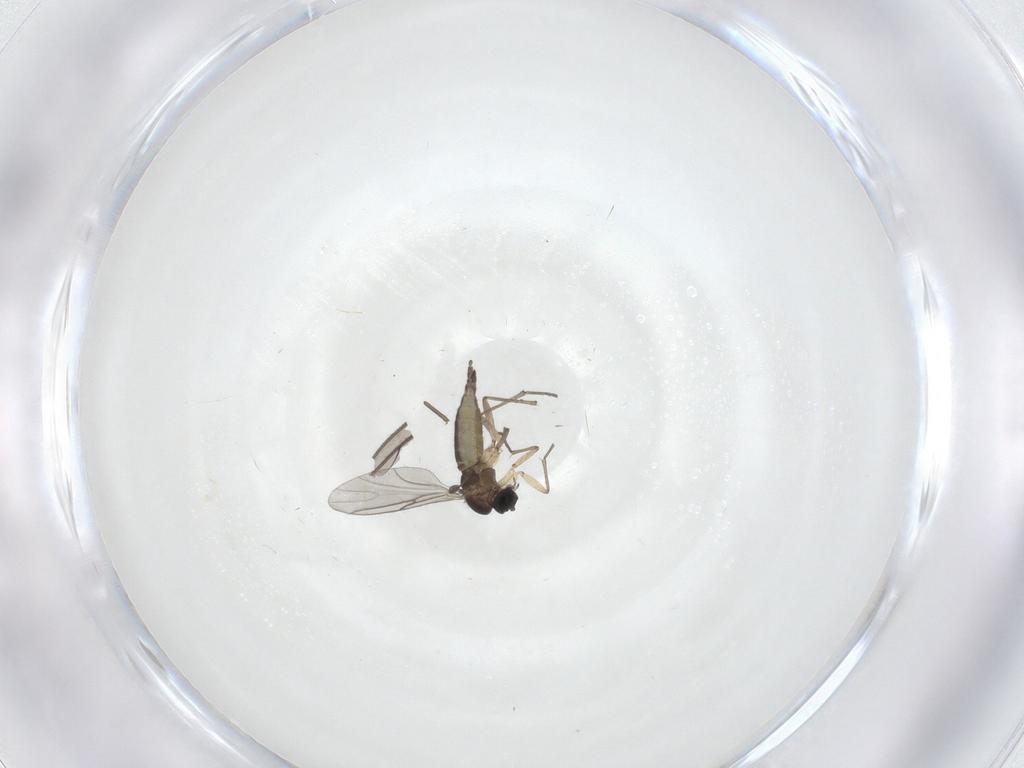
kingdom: Animalia
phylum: Arthropoda
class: Insecta
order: Diptera
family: Sciaridae
